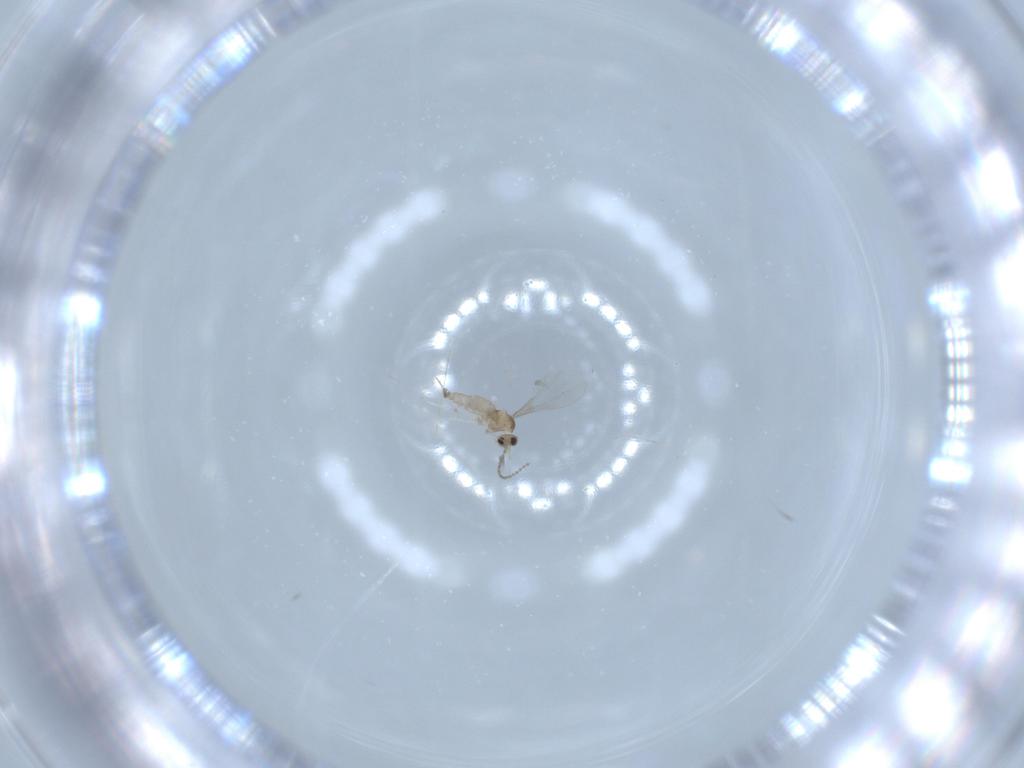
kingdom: Animalia
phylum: Arthropoda
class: Insecta
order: Diptera
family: Cecidomyiidae
